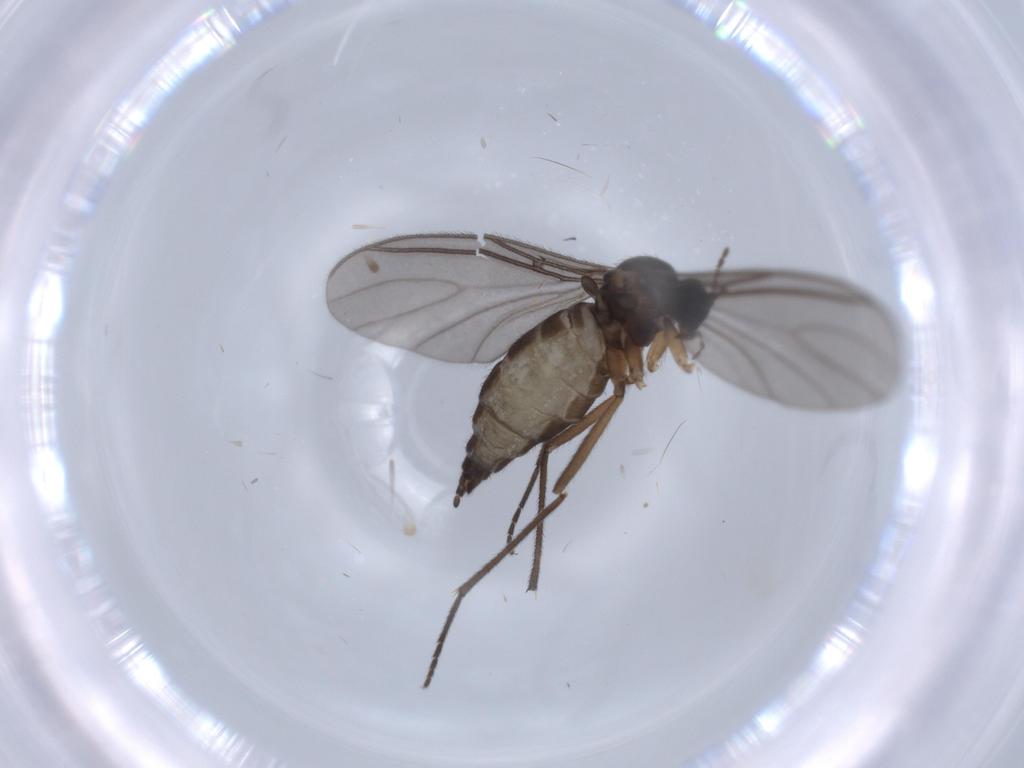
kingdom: Animalia
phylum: Arthropoda
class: Insecta
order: Diptera
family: Sciaridae
